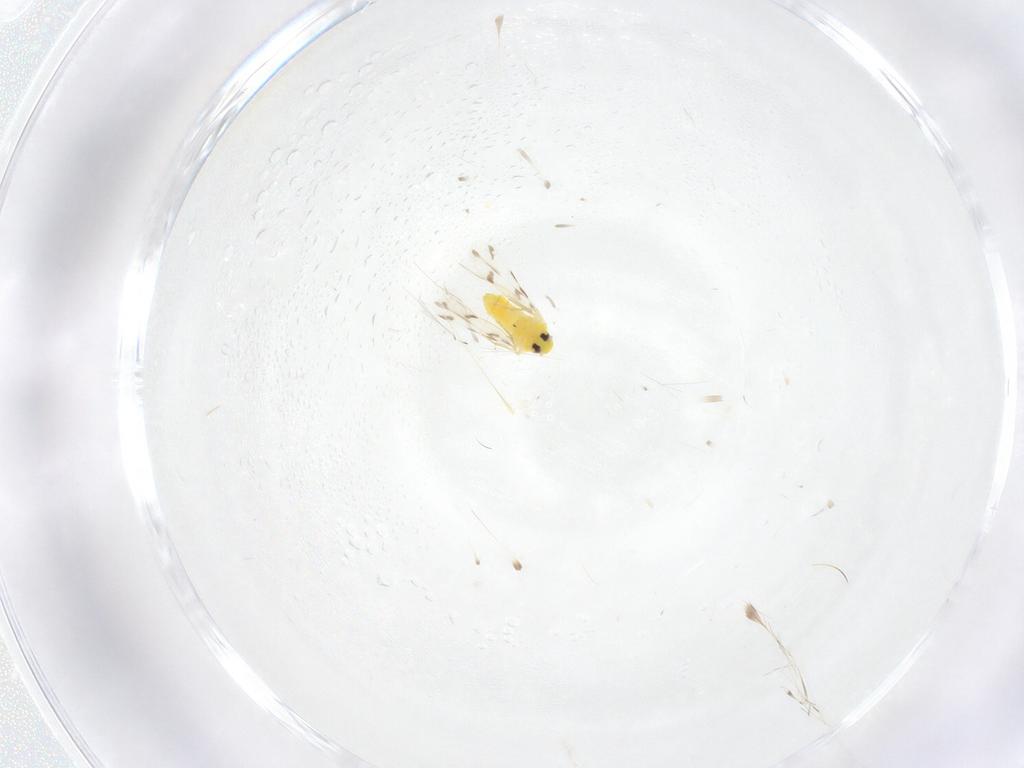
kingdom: Animalia
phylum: Arthropoda
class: Insecta
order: Hemiptera
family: Aleyrodidae
